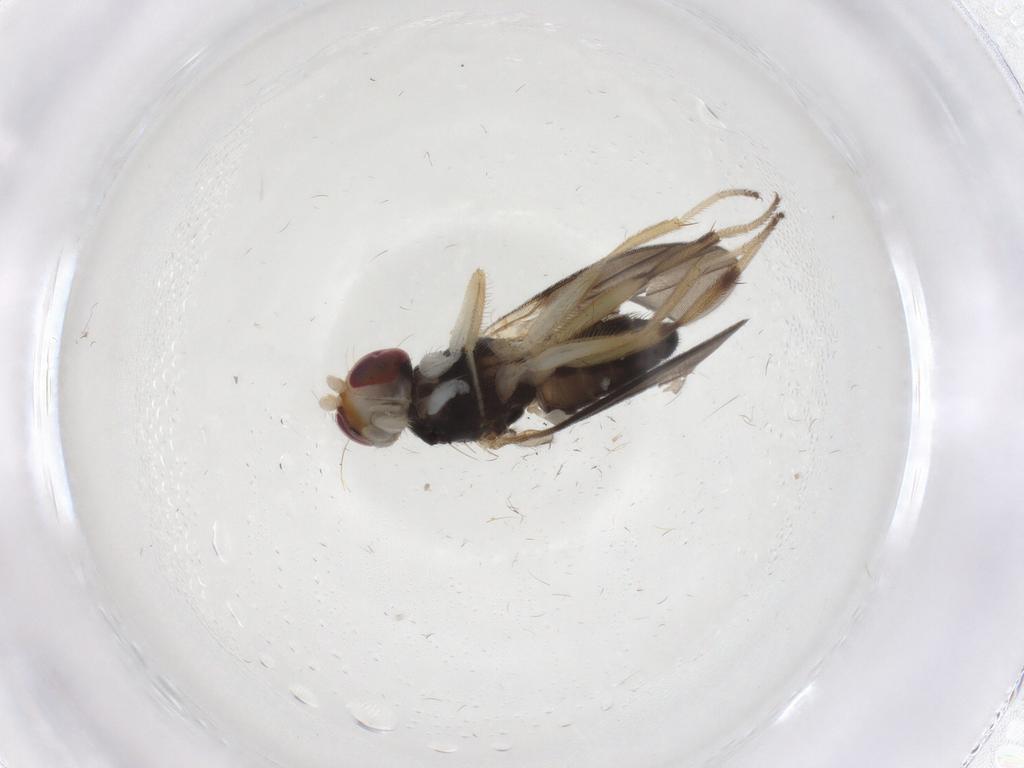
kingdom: Animalia
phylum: Arthropoda
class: Insecta
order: Diptera
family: Clusiidae
